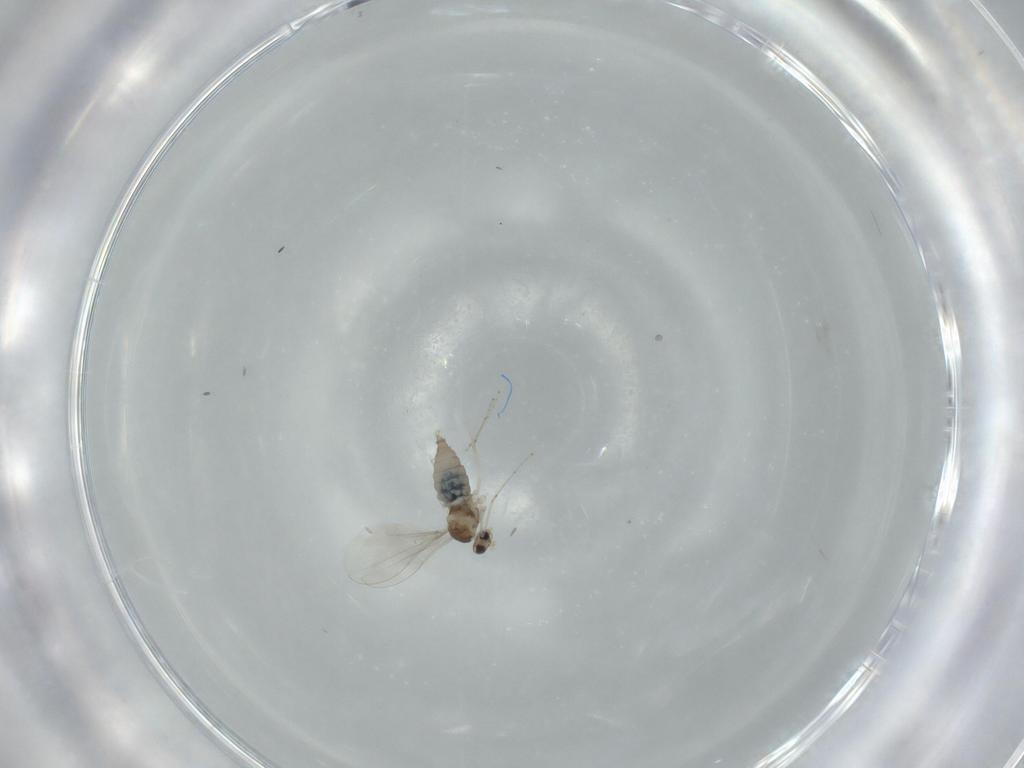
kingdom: Animalia
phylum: Arthropoda
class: Insecta
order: Diptera
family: Cecidomyiidae
